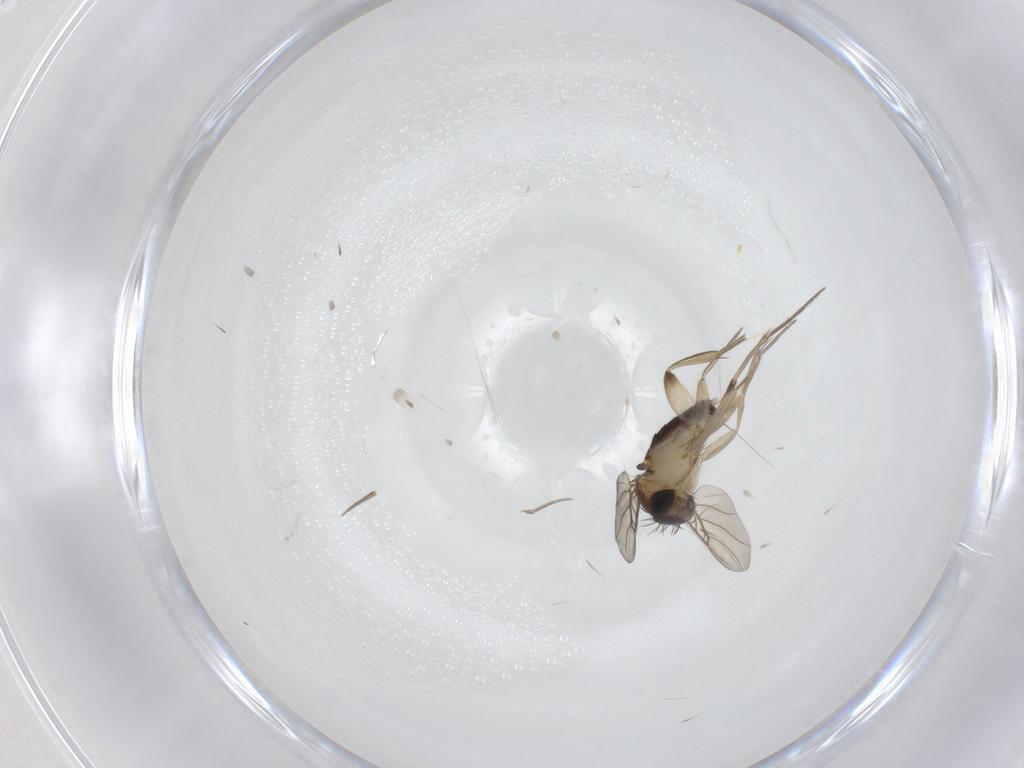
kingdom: Animalia
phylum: Arthropoda
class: Insecta
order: Diptera
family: Phoridae
